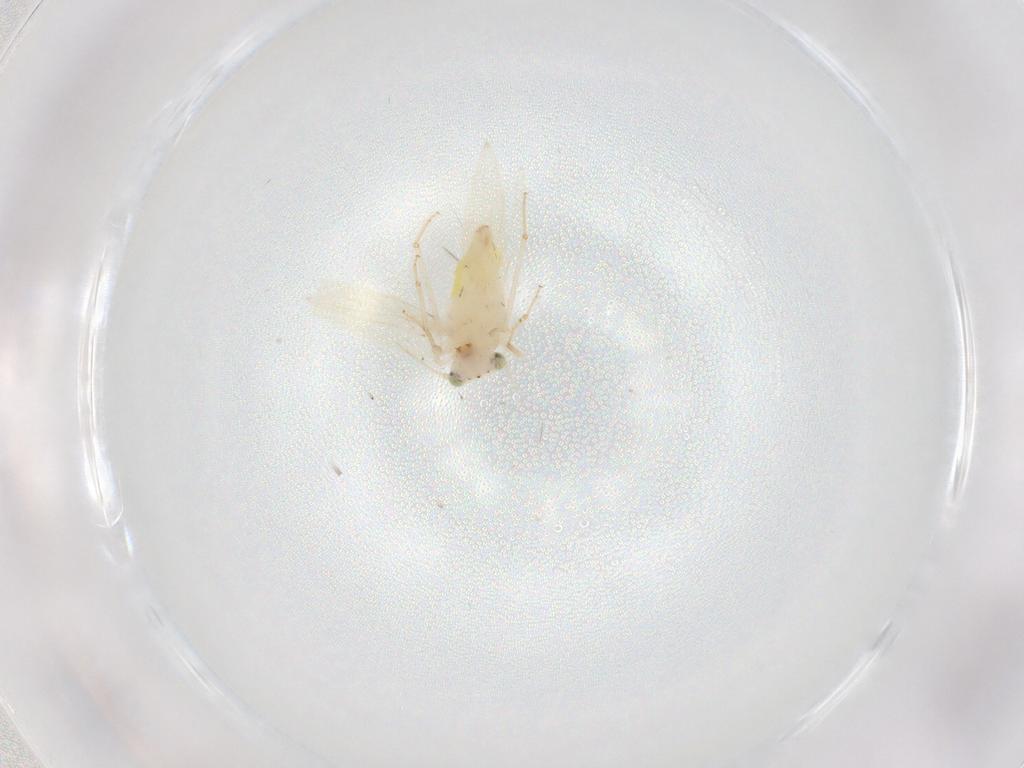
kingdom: Animalia
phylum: Arthropoda
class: Insecta
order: Psocodea
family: Lepidopsocidae
